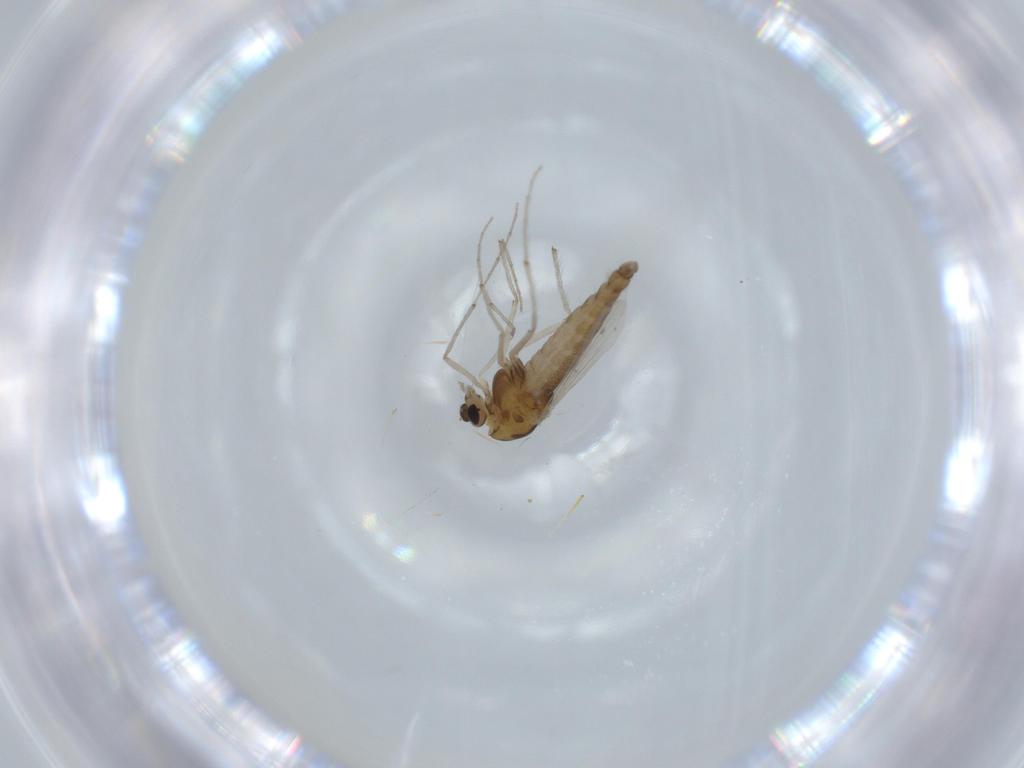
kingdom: Animalia
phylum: Arthropoda
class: Insecta
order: Diptera
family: Chironomidae
